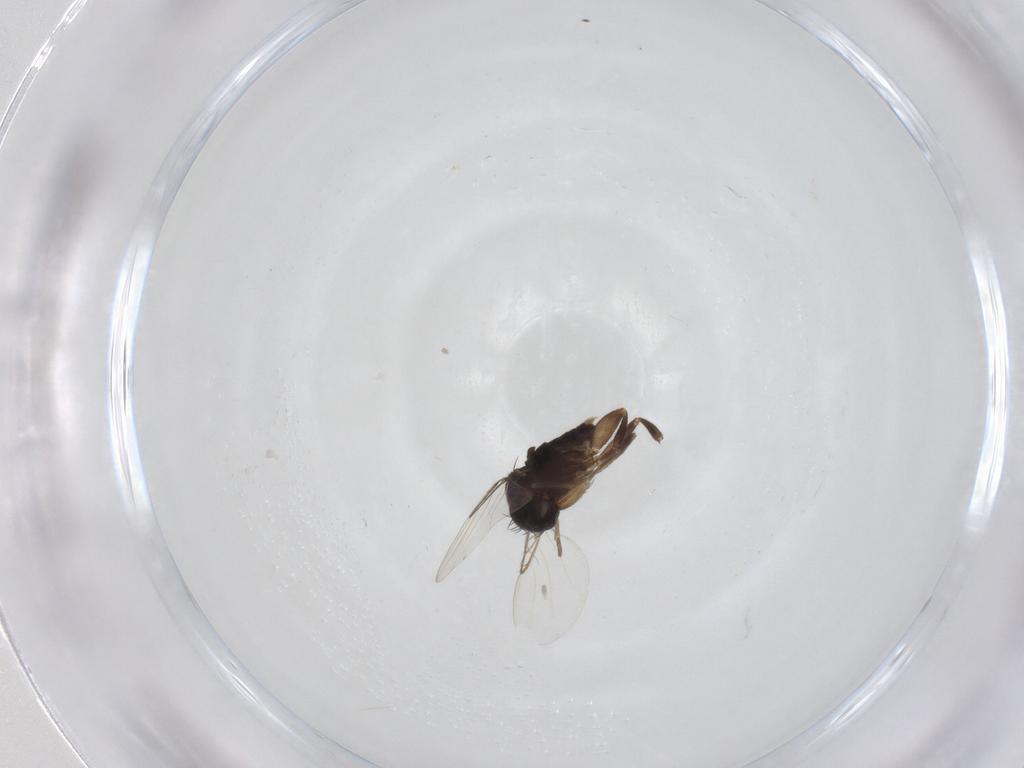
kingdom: Animalia
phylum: Arthropoda
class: Insecta
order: Diptera
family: Phoridae
